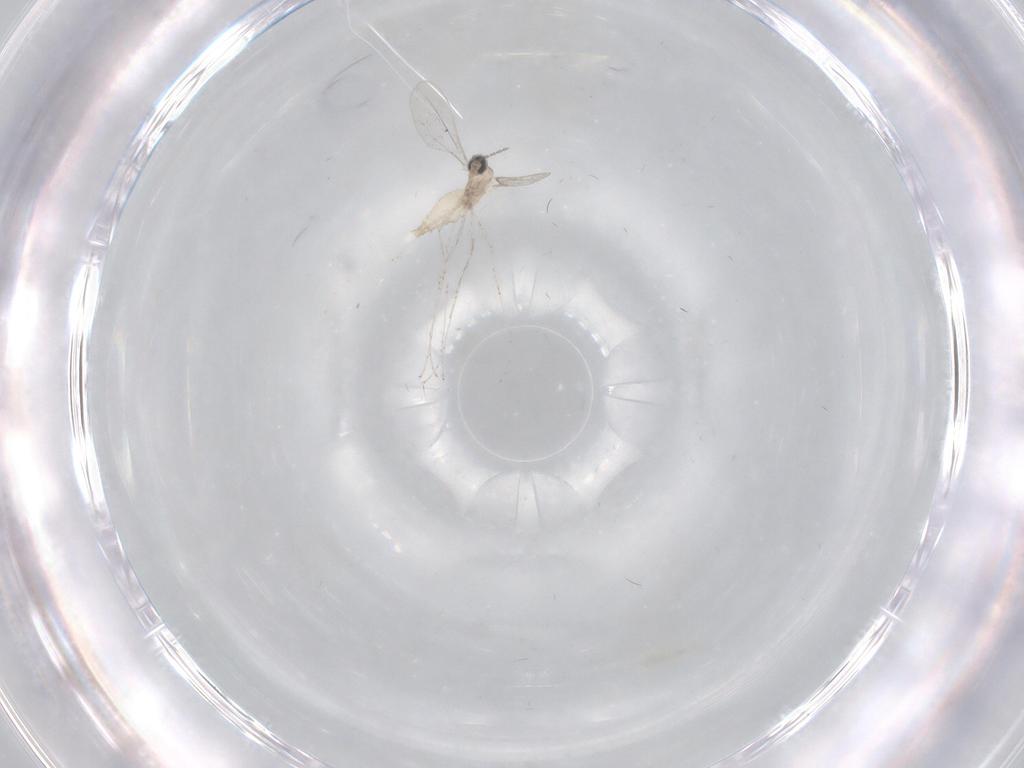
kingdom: Animalia
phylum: Arthropoda
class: Insecta
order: Diptera
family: Cecidomyiidae
